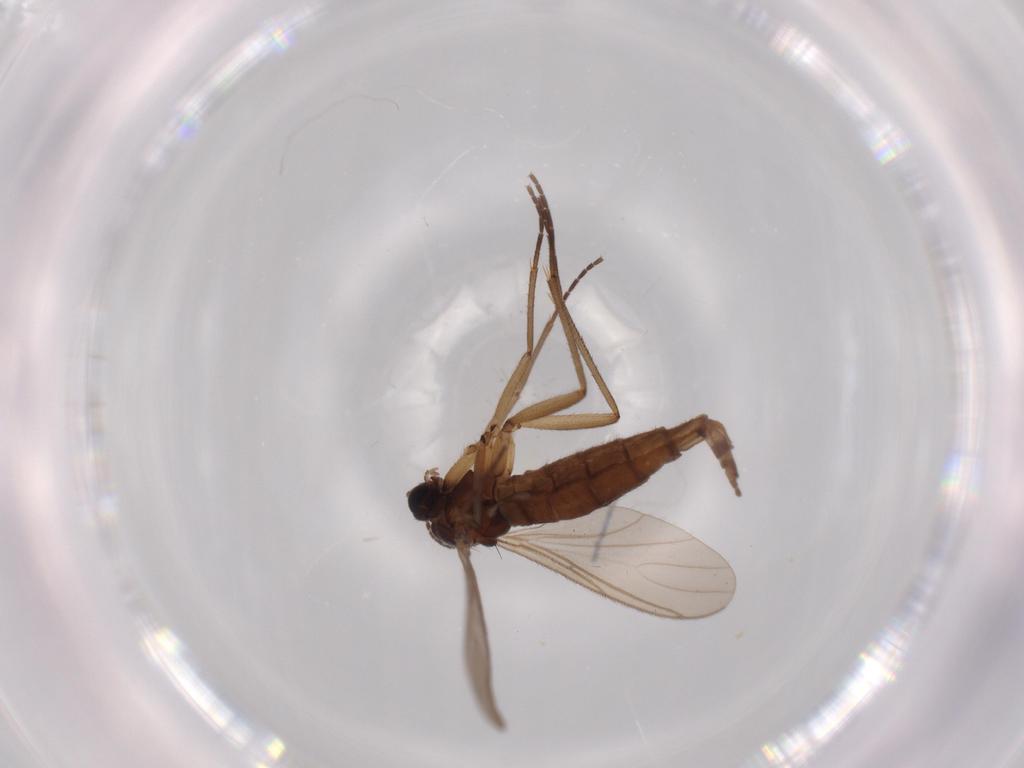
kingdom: Animalia
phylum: Arthropoda
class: Insecta
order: Diptera
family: Sciaridae
